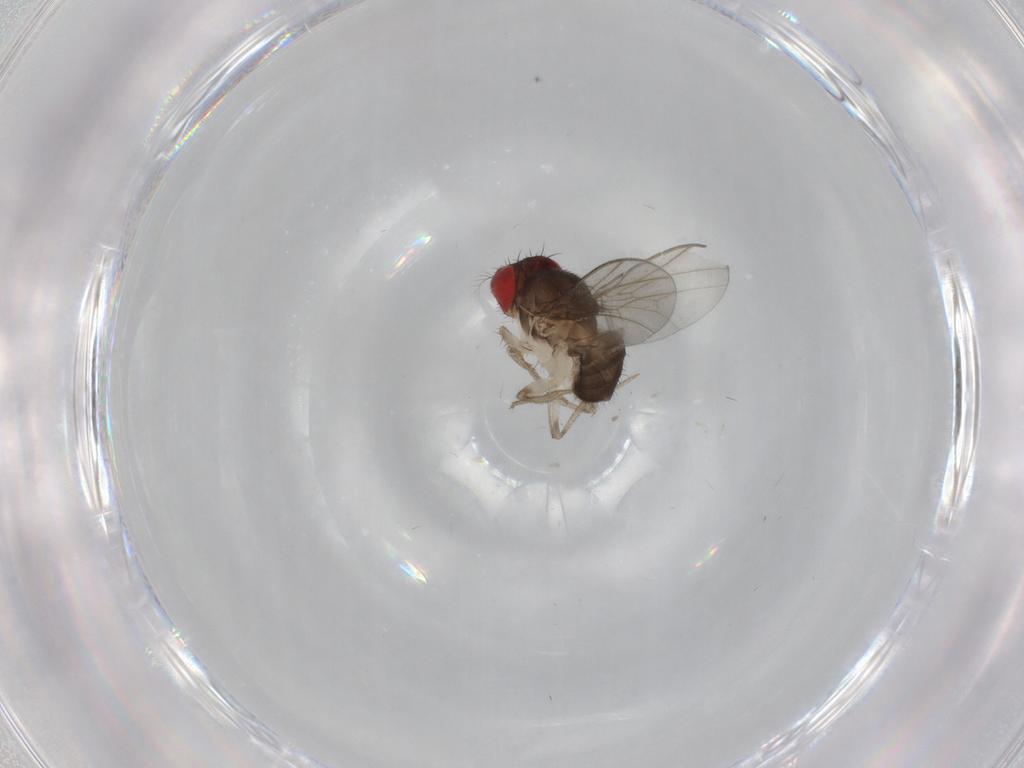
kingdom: Animalia
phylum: Arthropoda
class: Insecta
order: Diptera
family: Drosophilidae
